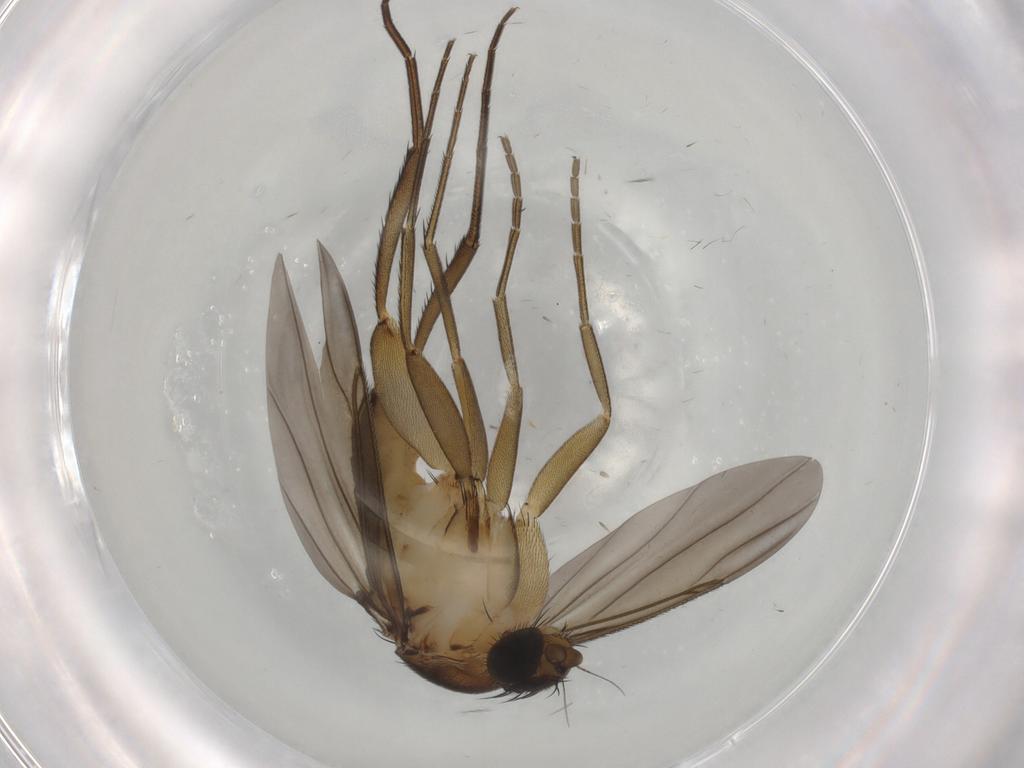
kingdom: Animalia
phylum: Arthropoda
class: Insecta
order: Diptera
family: Phoridae
